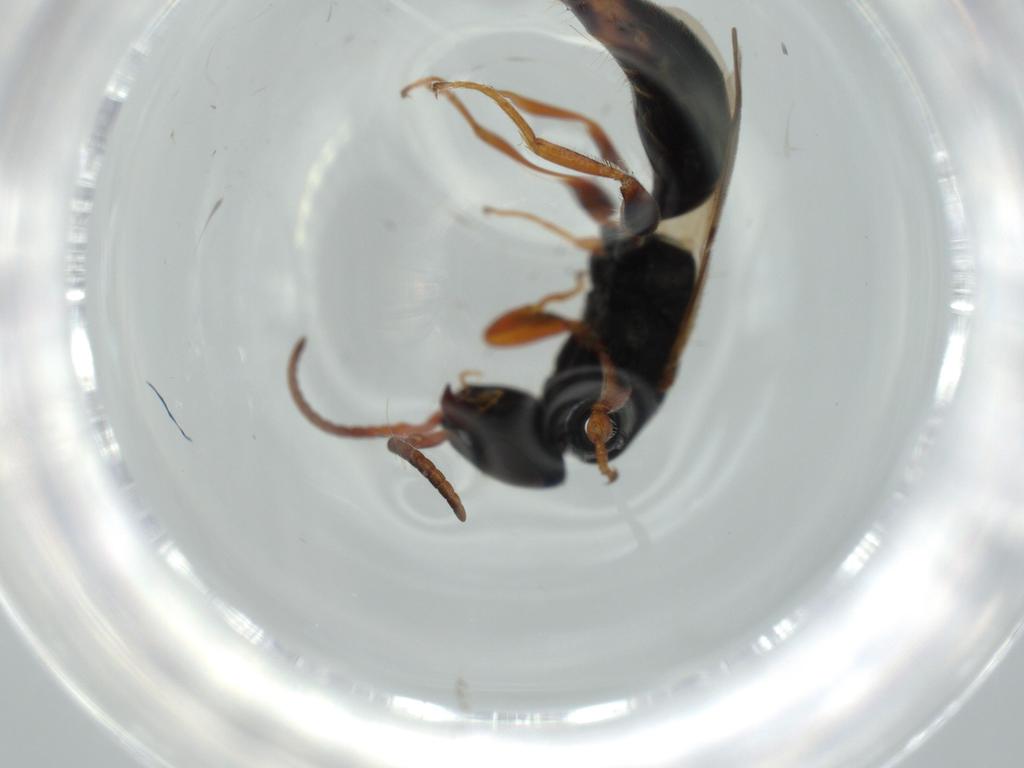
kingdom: Animalia
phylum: Arthropoda
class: Insecta
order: Hymenoptera
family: Bethylidae
